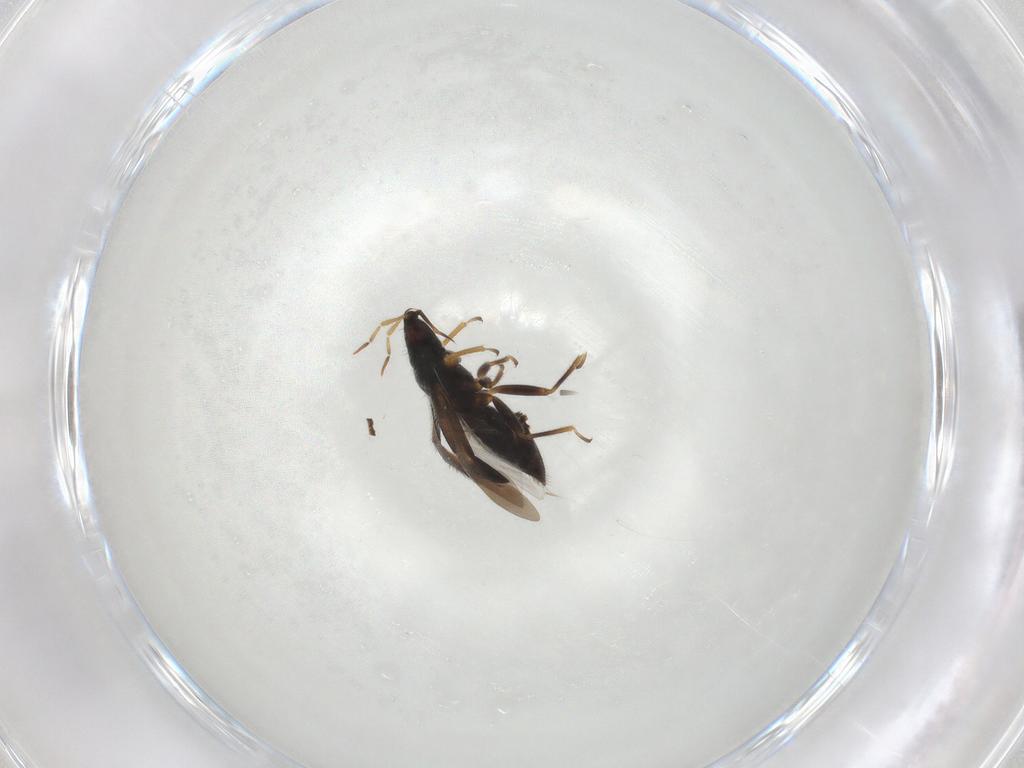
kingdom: Animalia
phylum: Arthropoda
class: Insecta
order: Hemiptera
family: Anthocoridae
